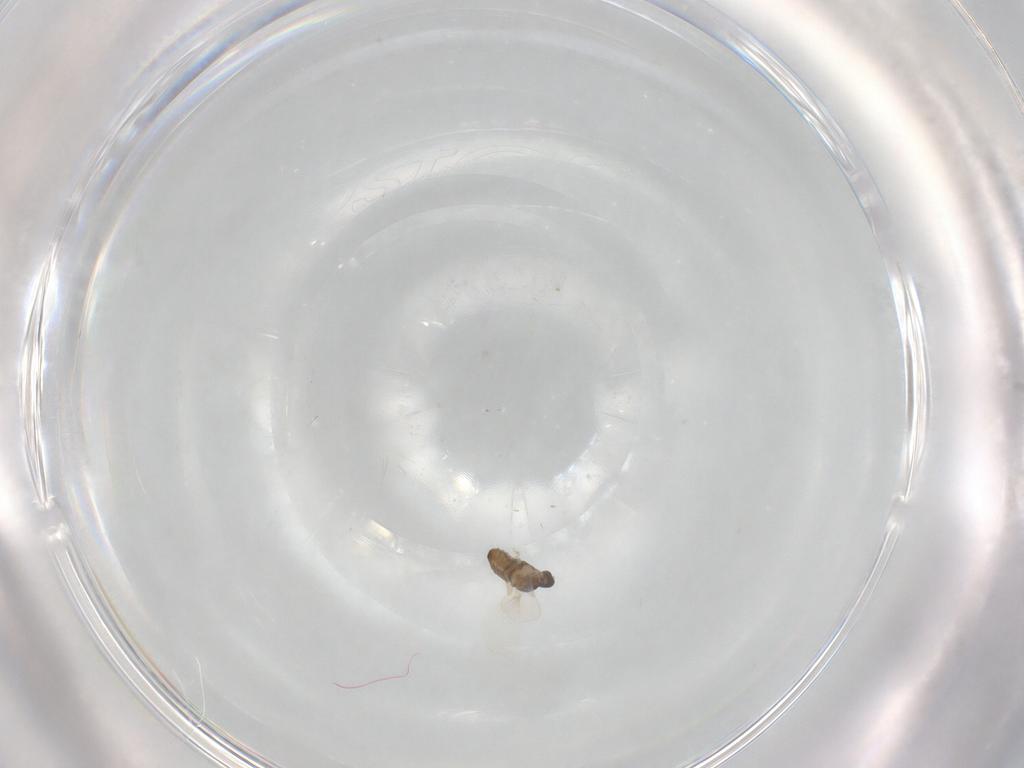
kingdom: Animalia
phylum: Arthropoda
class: Insecta
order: Diptera
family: Cecidomyiidae
